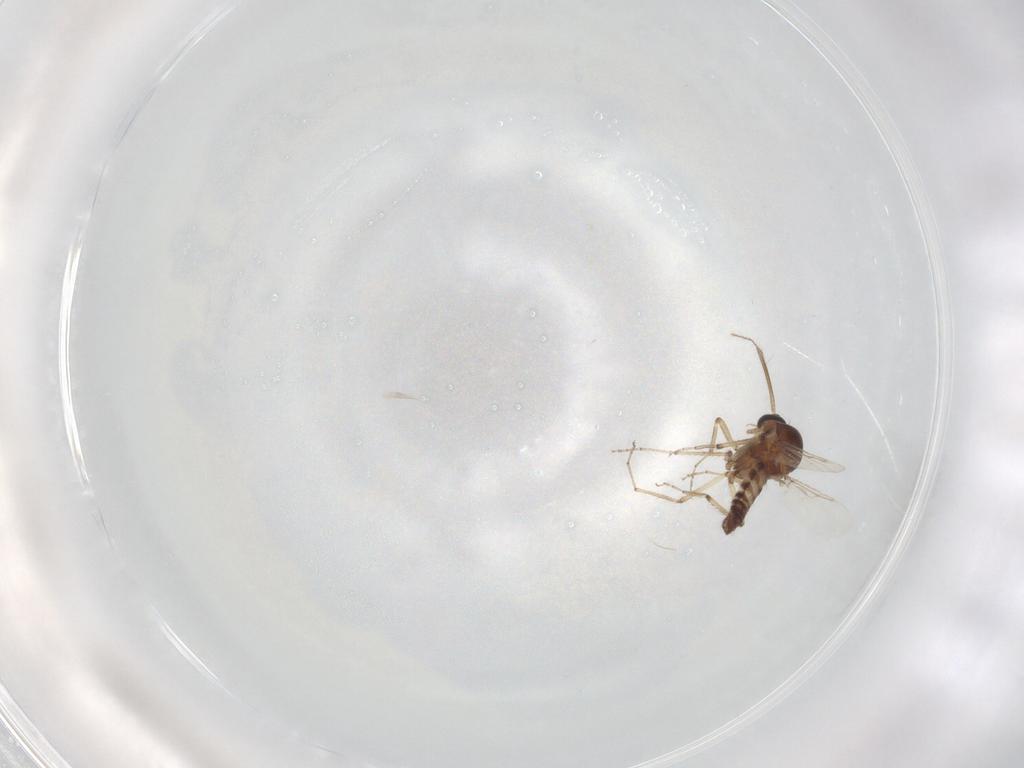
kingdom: Animalia
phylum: Arthropoda
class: Insecta
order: Diptera
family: Ceratopogonidae
